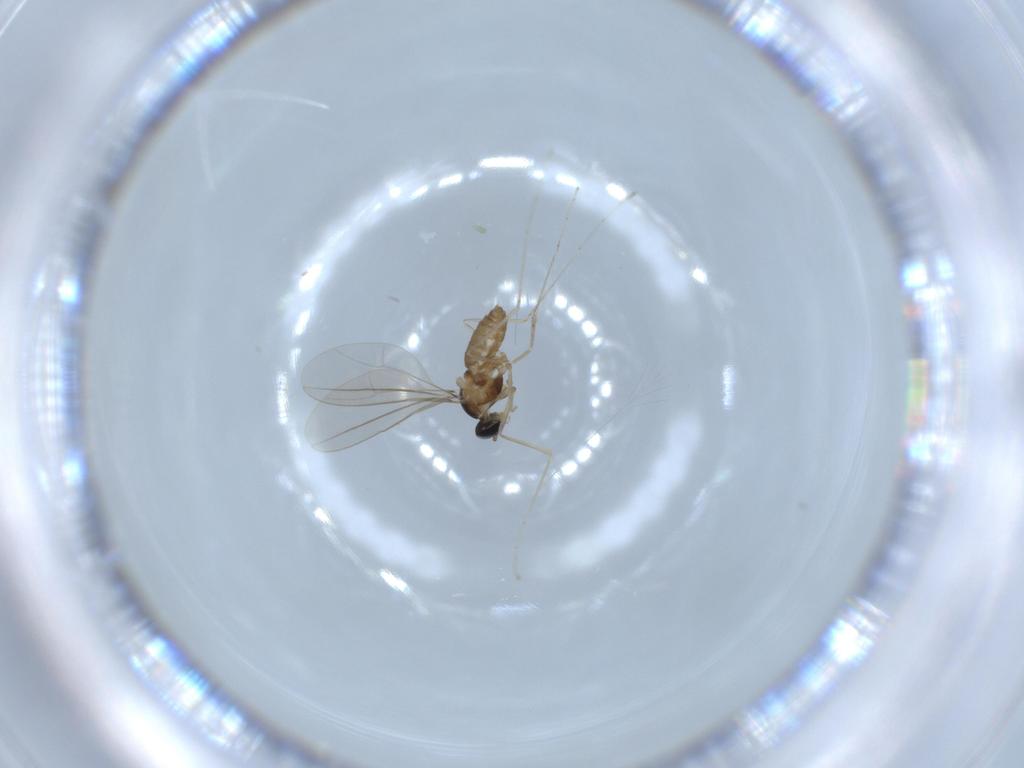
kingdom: Animalia
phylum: Arthropoda
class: Insecta
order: Diptera
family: Cecidomyiidae
